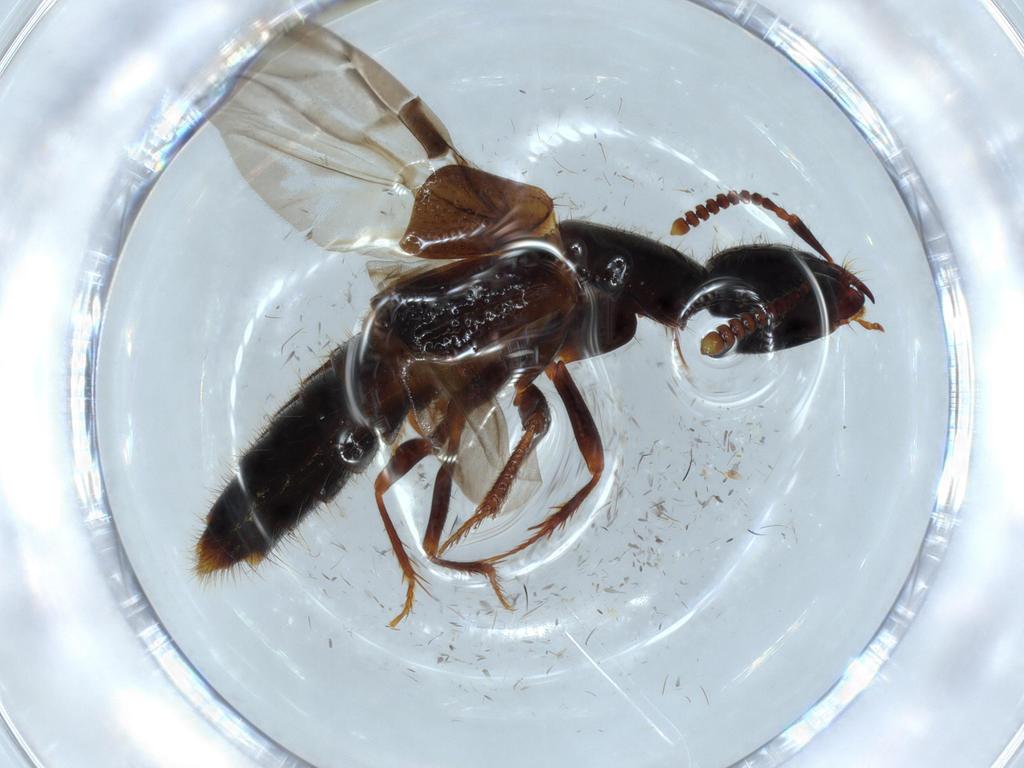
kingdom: Animalia
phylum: Arthropoda
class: Insecta
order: Coleoptera
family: Staphylinidae
